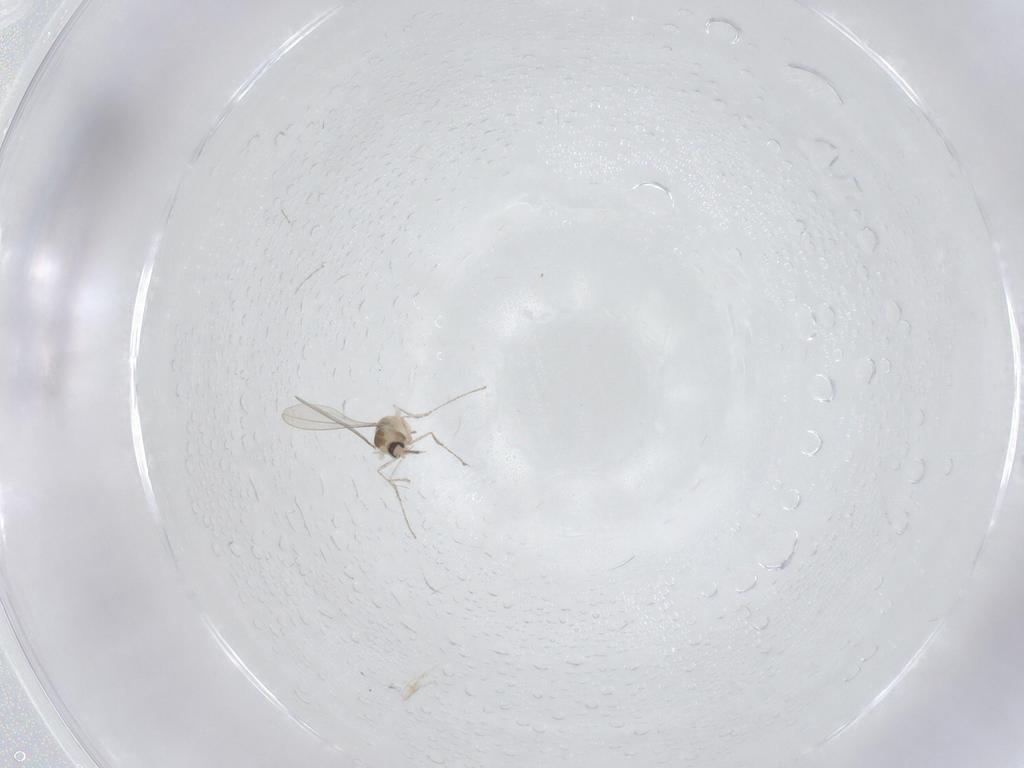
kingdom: Animalia
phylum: Arthropoda
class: Insecta
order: Diptera
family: Cecidomyiidae
